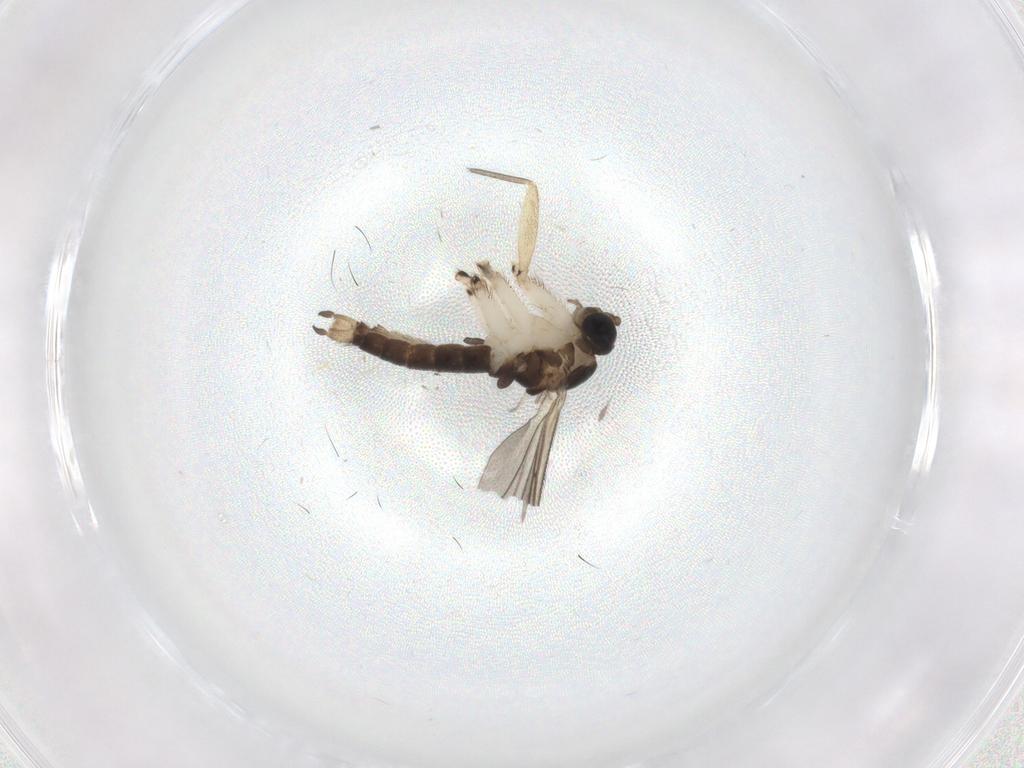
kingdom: Animalia
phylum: Arthropoda
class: Insecta
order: Diptera
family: Sciaridae
